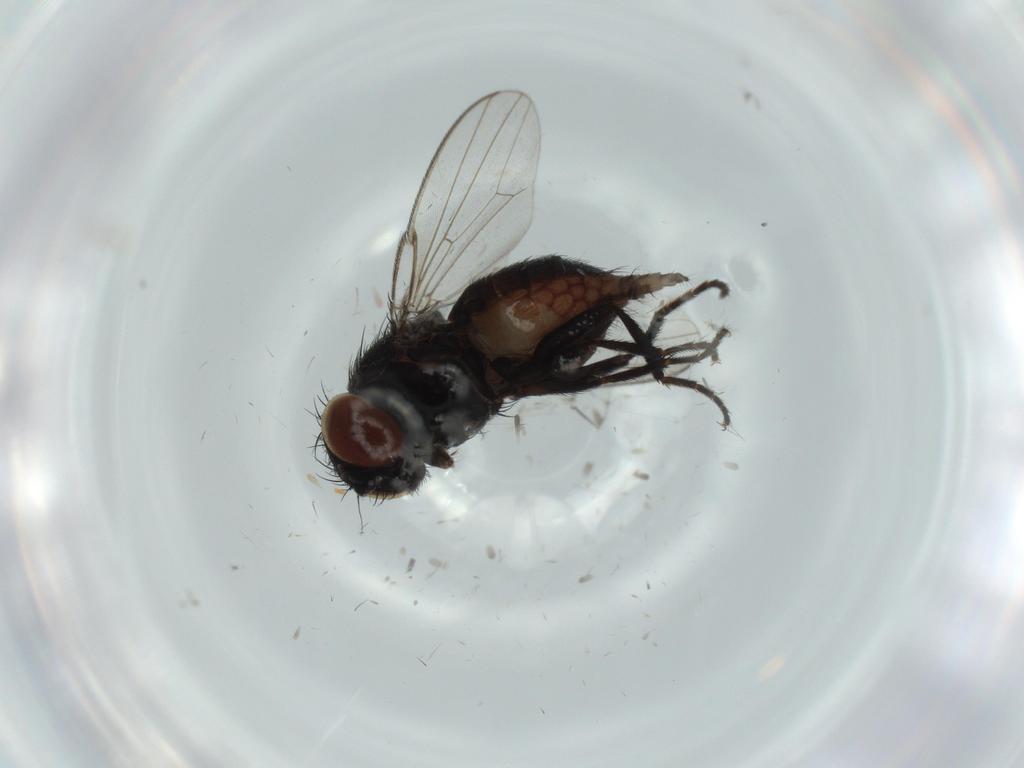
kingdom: Animalia
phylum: Arthropoda
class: Insecta
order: Diptera
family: Milichiidae
